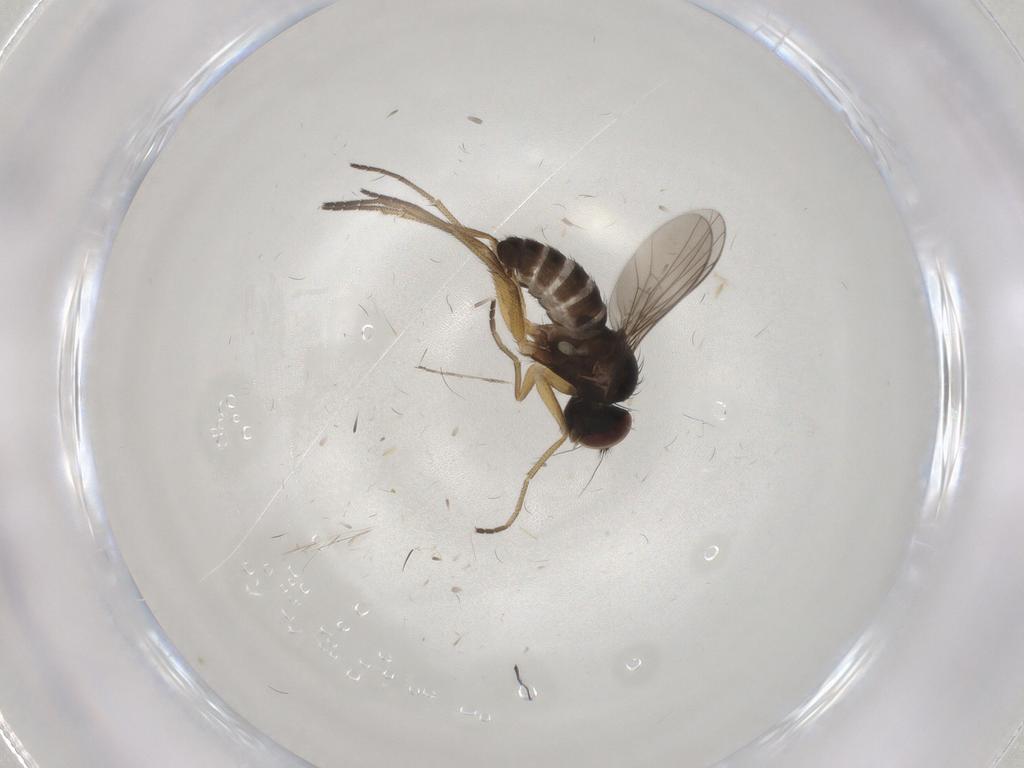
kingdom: Animalia
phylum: Arthropoda
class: Insecta
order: Diptera
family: Dolichopodidae
